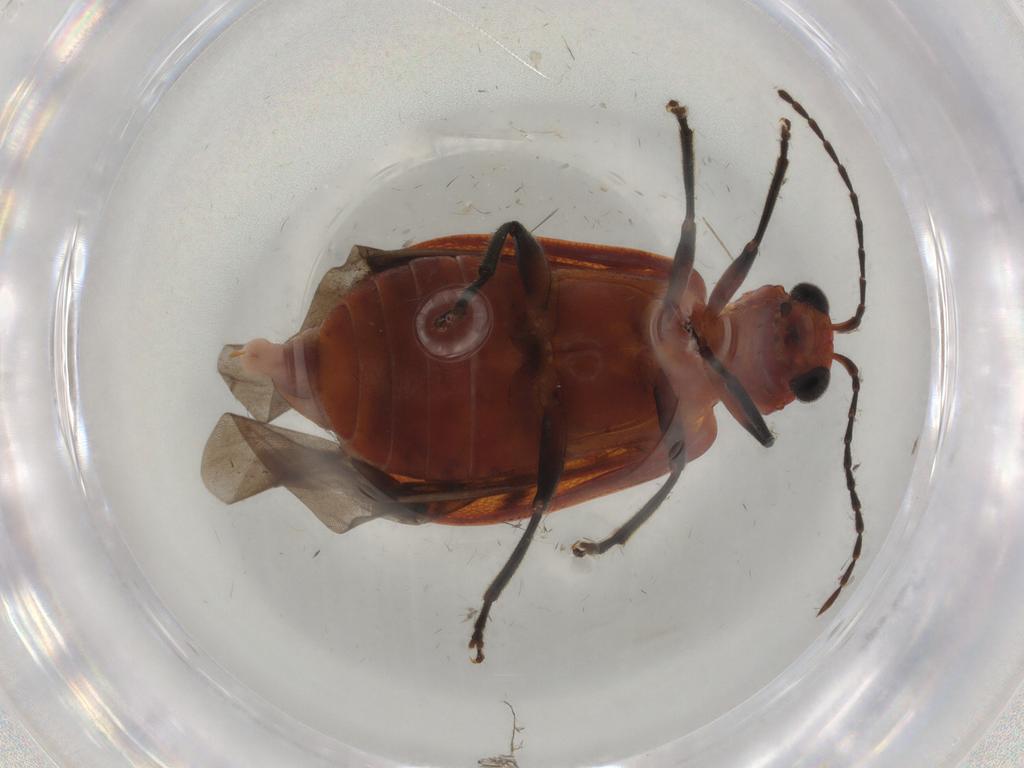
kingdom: Animalia
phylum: Arthropoda
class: Insecta
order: Coleoptera
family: Chrysomelidae
